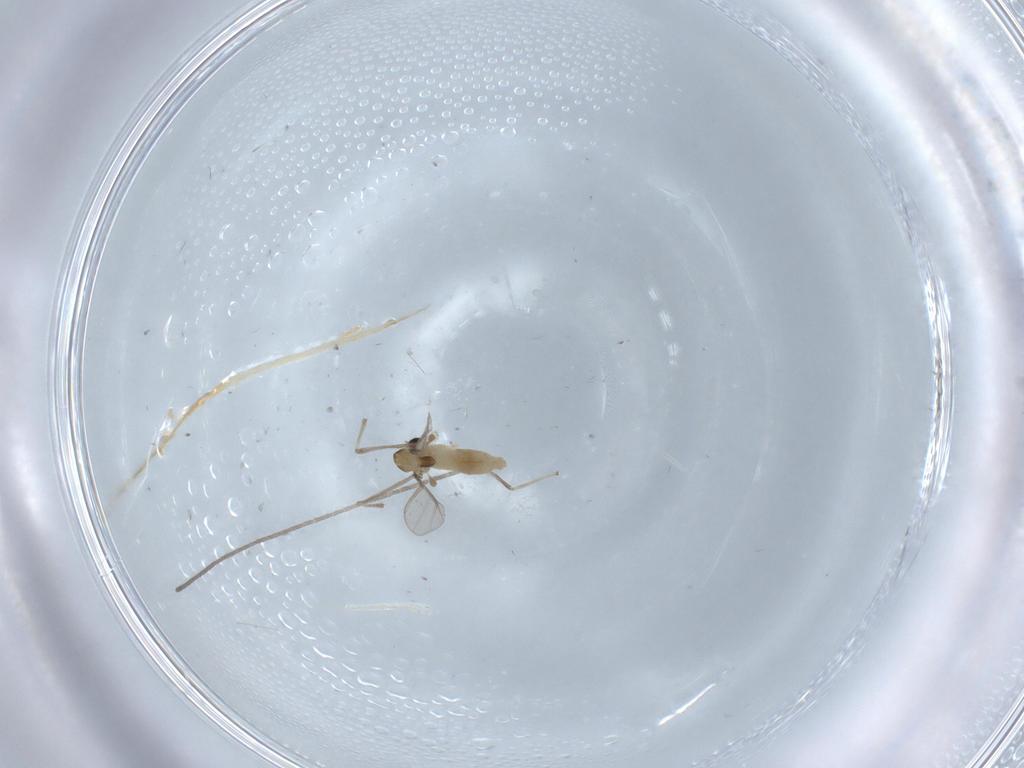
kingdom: Animalia
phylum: Arthropoda
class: Insecta
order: Diptera
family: Chironomidae
